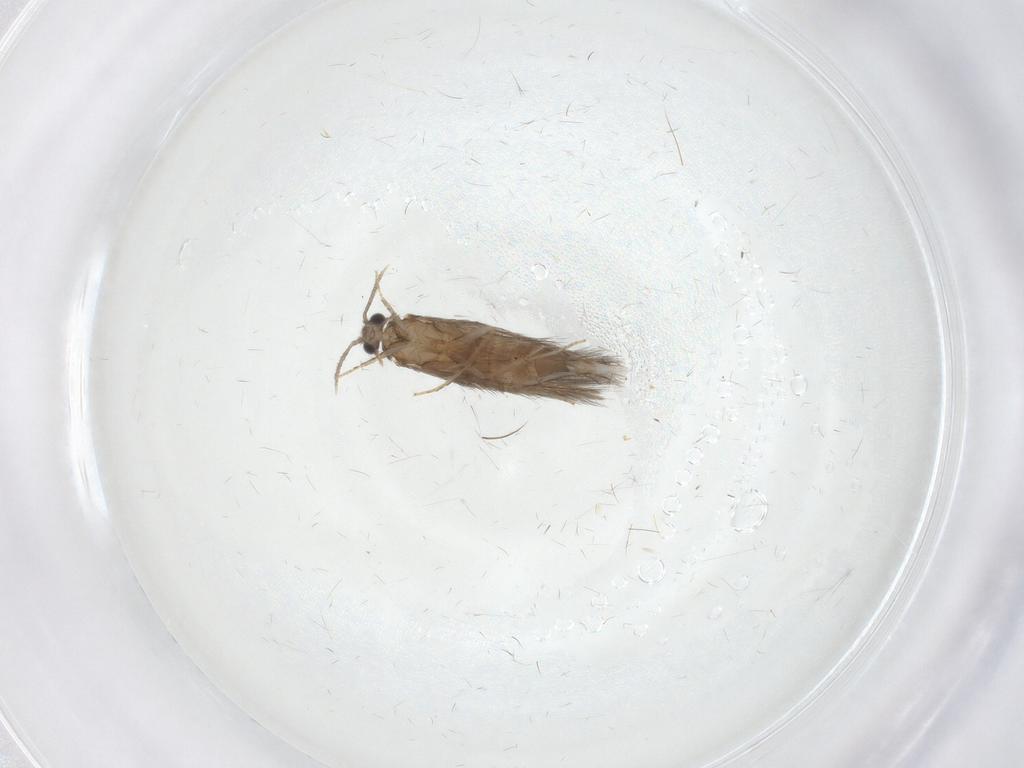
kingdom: Animalia
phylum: Arthropoda
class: Insecta
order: Trichoptera
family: Hydroptilidae
